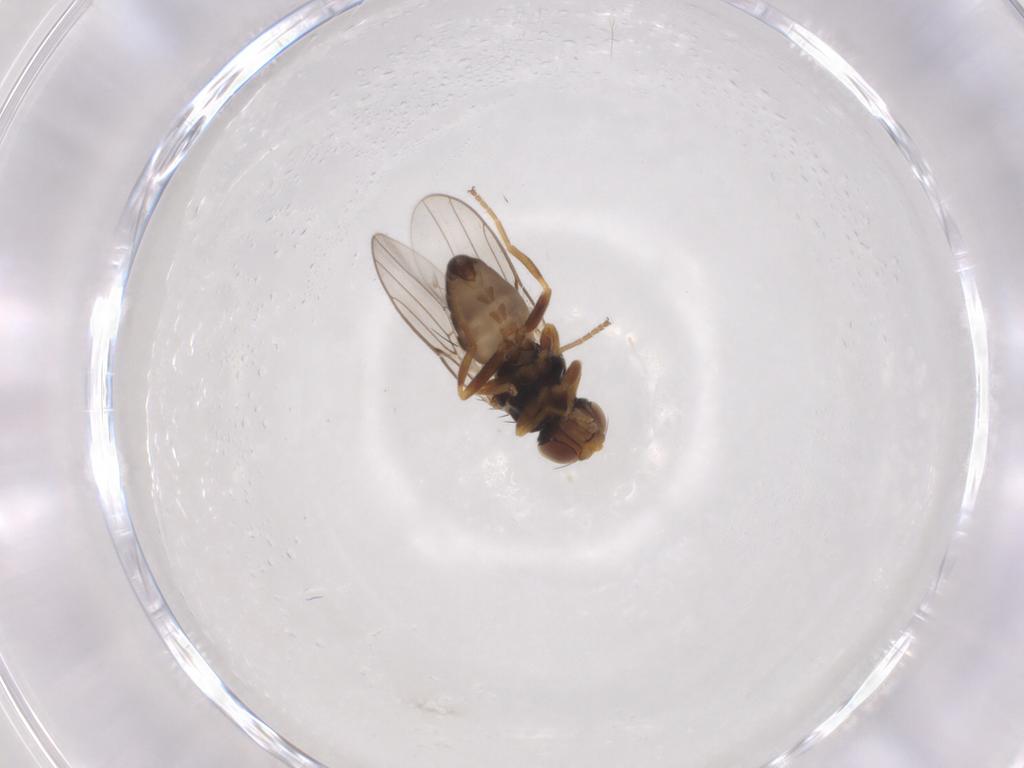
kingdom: Animalia
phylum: Arthropoda
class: Insecta
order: Diptera
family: Chloropidae
